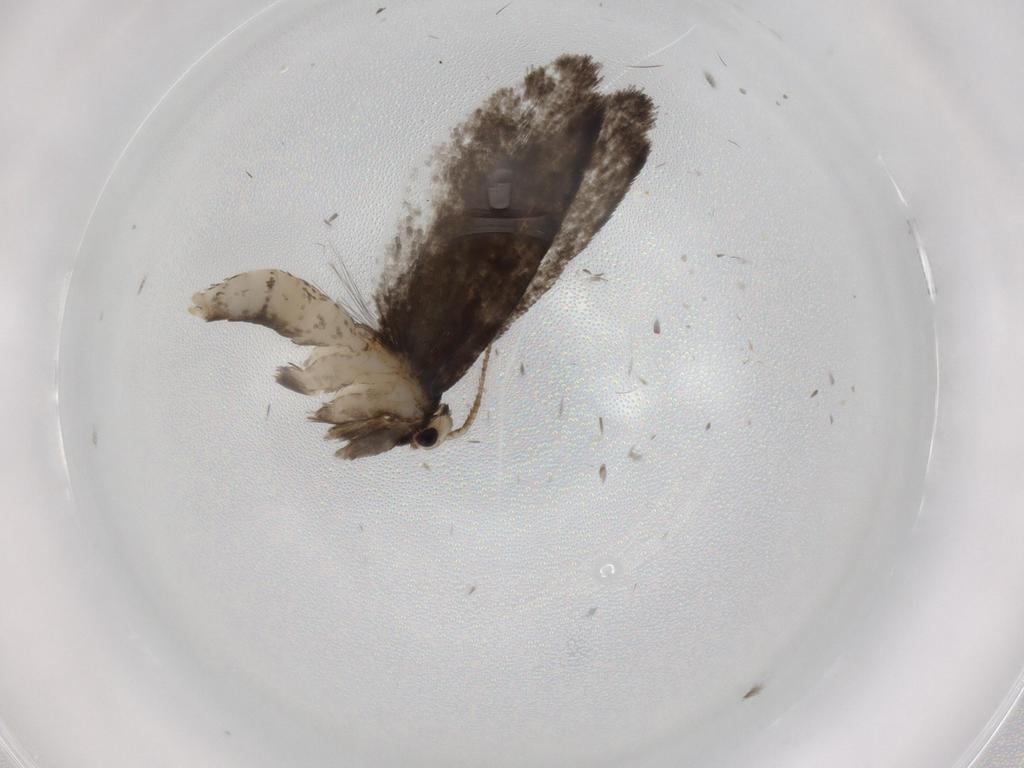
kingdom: Animalia
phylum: Arthropoda
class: Insecta
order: Lepidoptera
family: Psychidae
